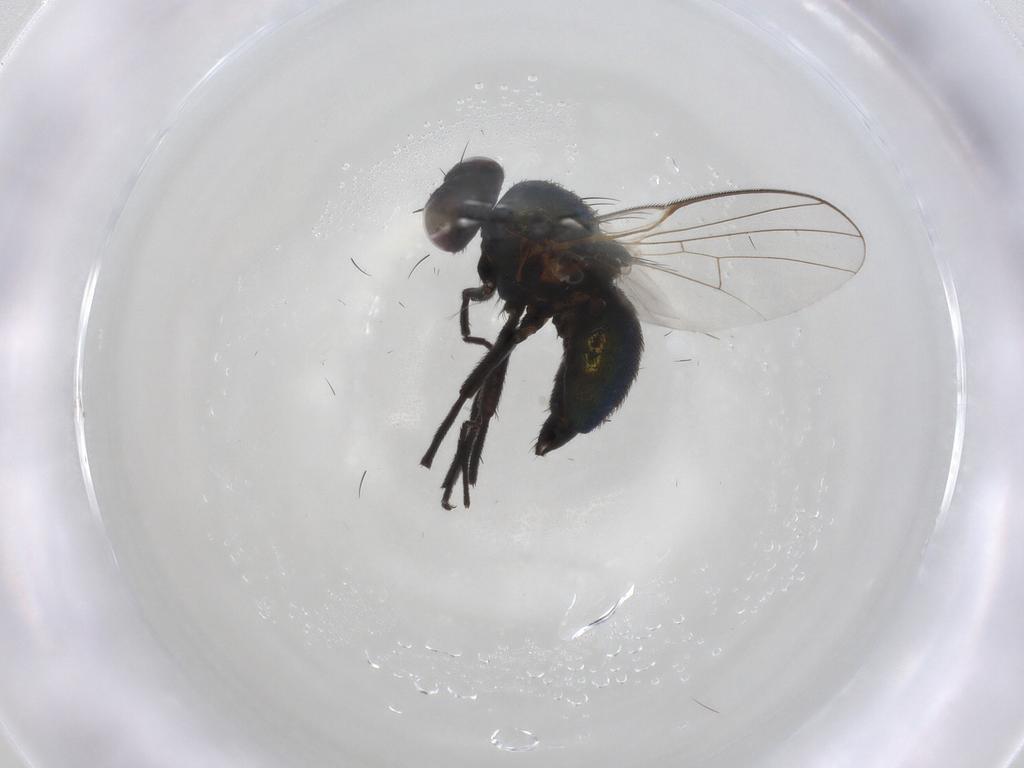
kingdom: Animalia
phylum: Arthropoda
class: Insecta
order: Diptera
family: Agromyzidae
